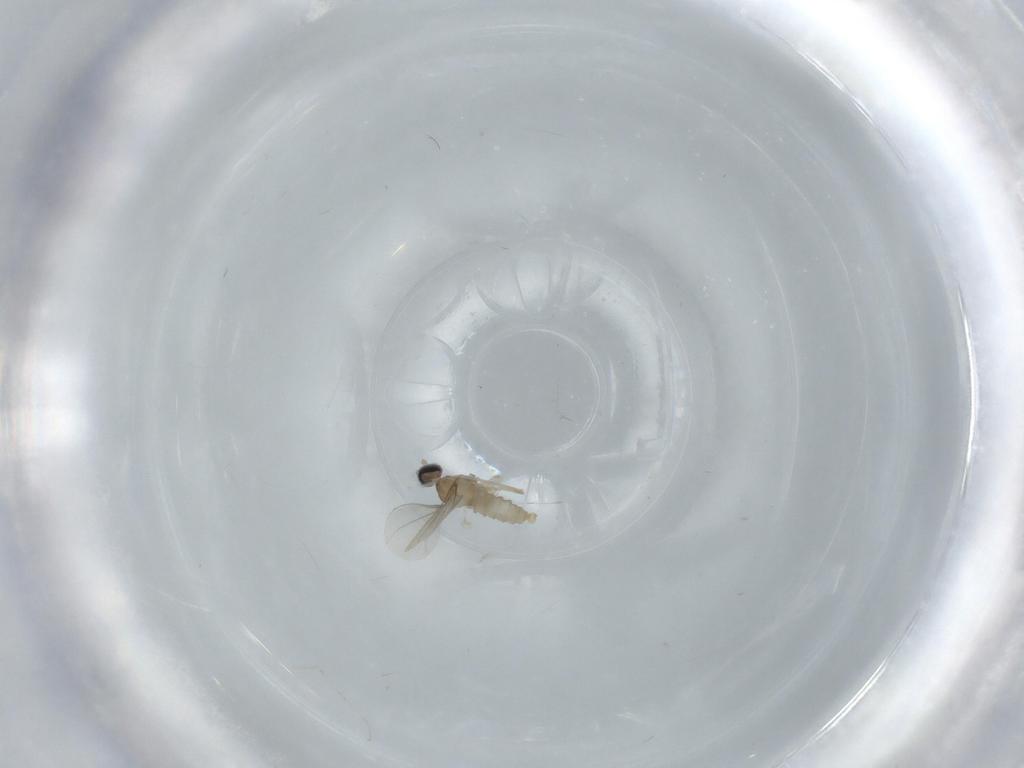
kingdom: Animalia
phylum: Arthropoda
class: Insecta
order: Diptera
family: Cecidomyiidae
